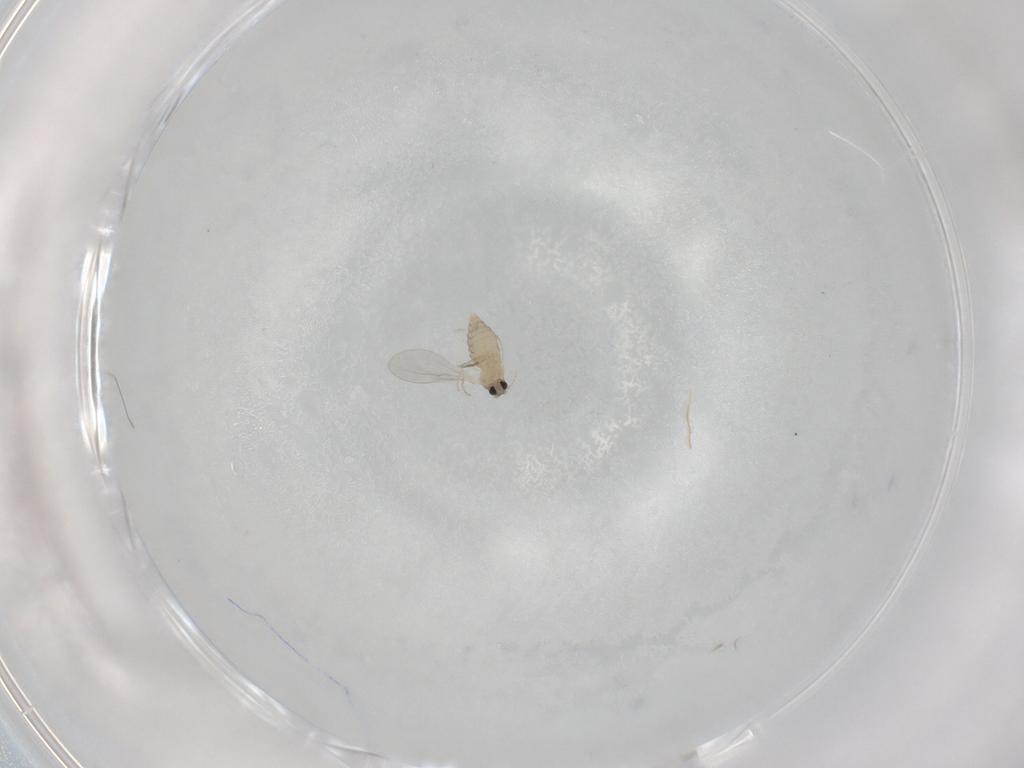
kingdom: Animalia
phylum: Arthropoda
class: Insecta
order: Diptera
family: Cecidomyiidae
